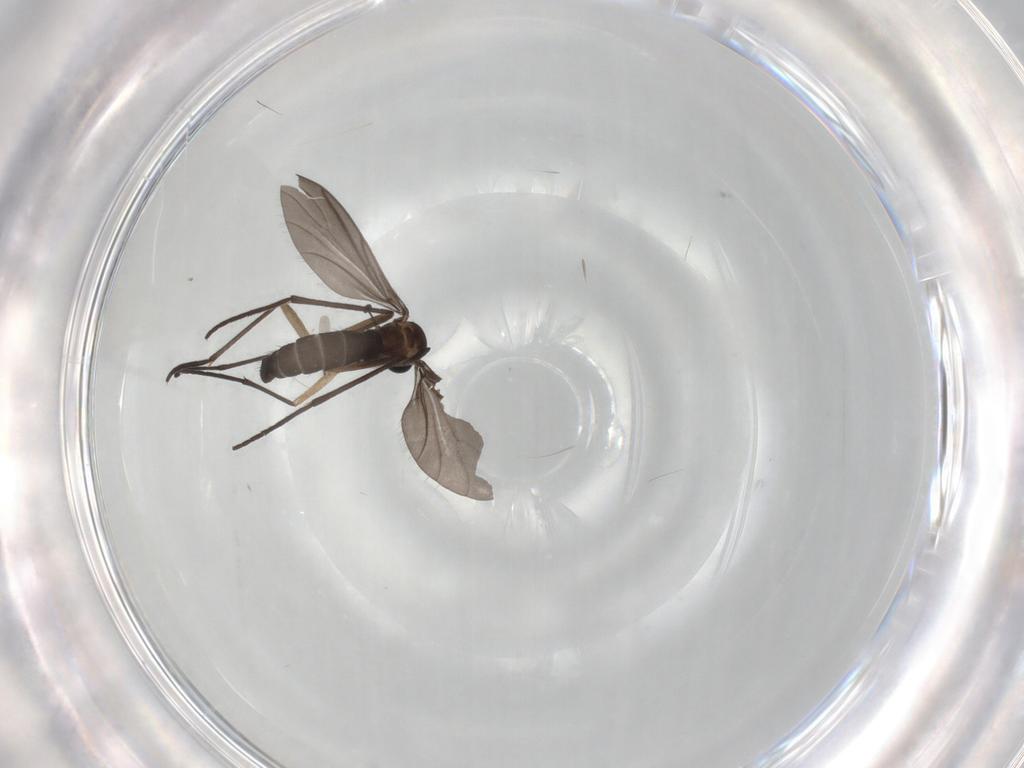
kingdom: Animalia
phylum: Arthropoda
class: Insecta
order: Diptera
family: Sciaridae
